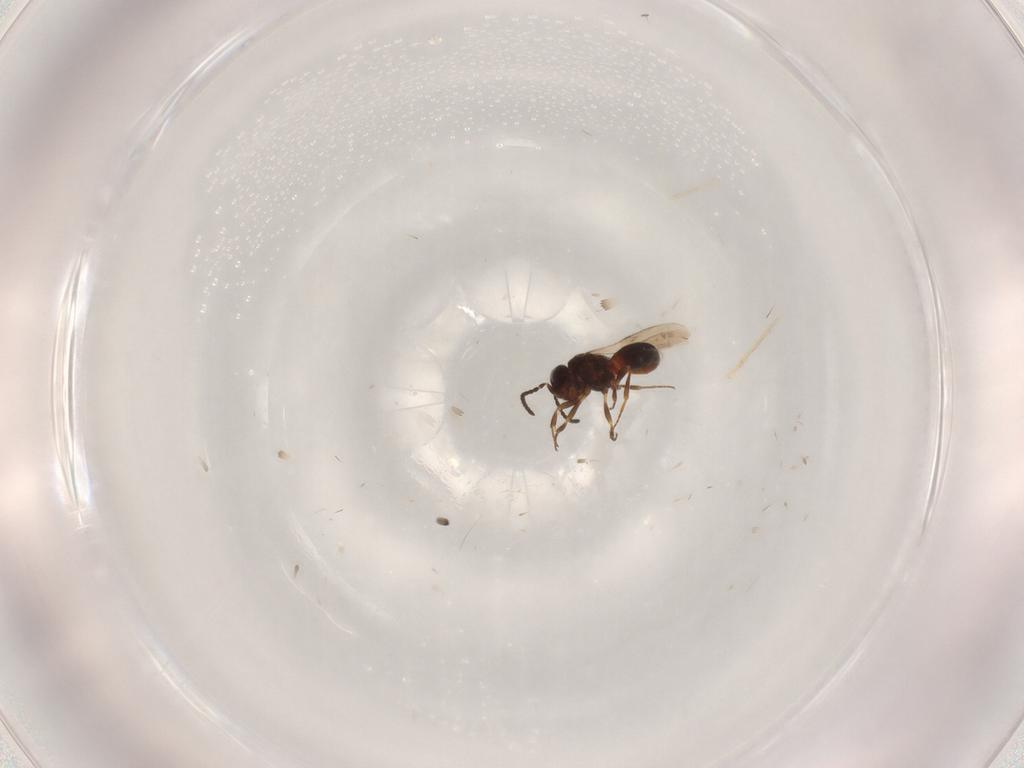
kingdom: Animalia
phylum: Arthropoda
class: Insecta
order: Hymenoptera
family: Scelionidae
